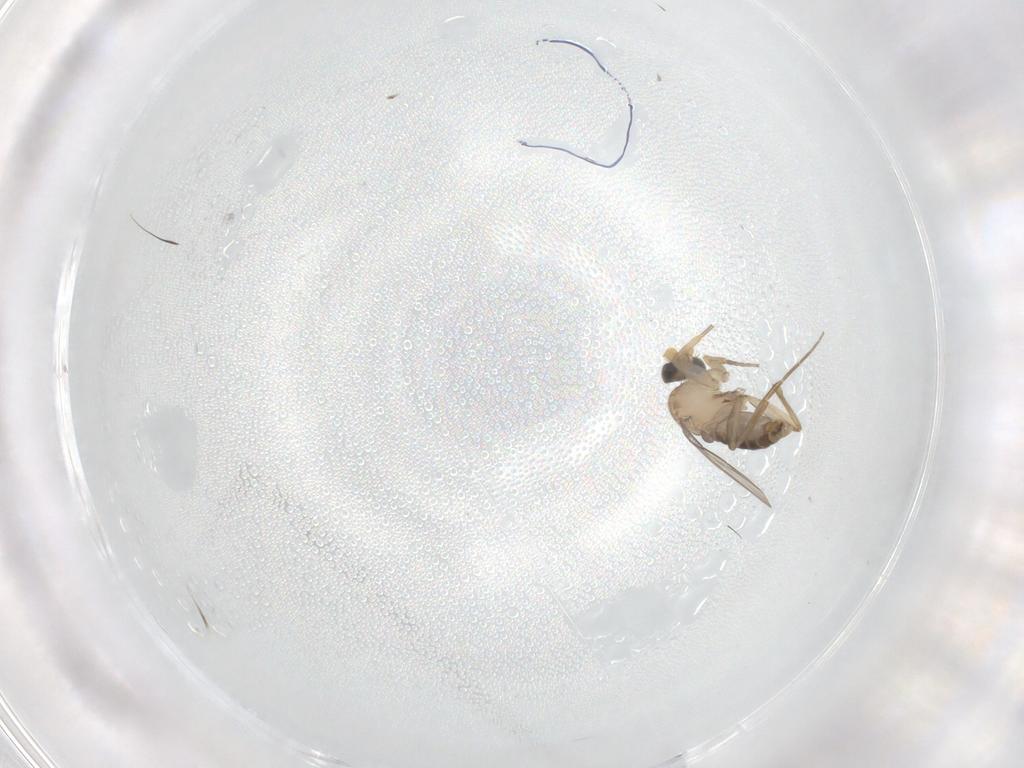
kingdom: Animalia
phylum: Arthropoda
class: Insecta
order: Diptera
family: Phoridae
